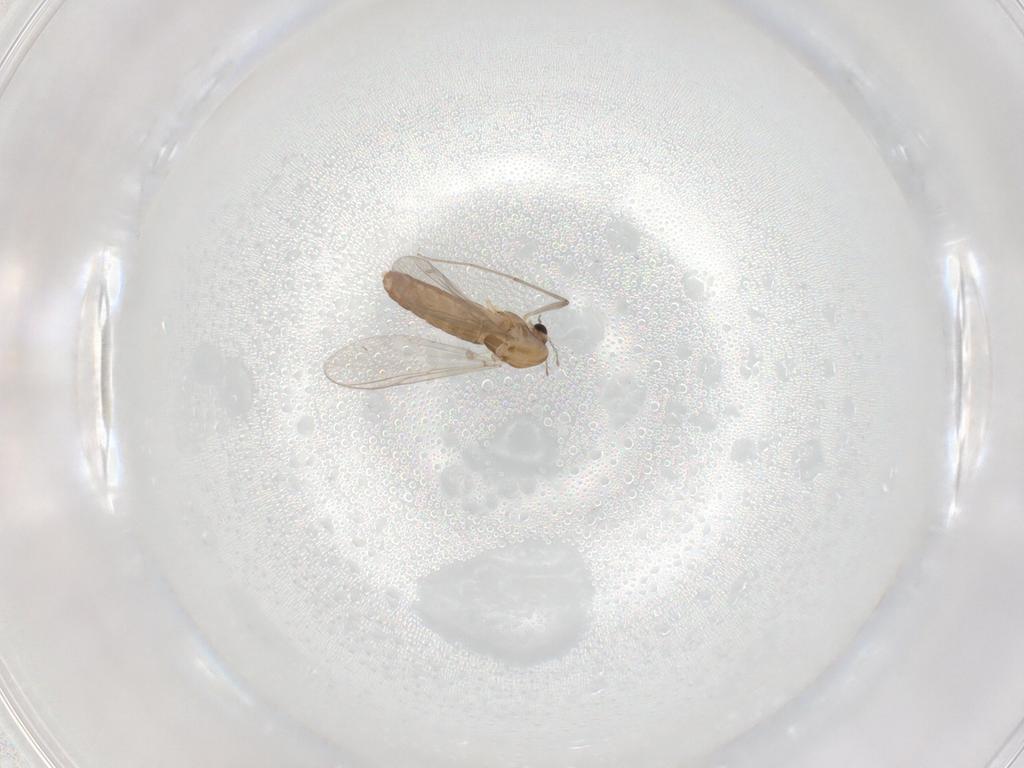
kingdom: Animalia
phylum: Arthropoda
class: Insecta
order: Diptera
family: Chironomidae
